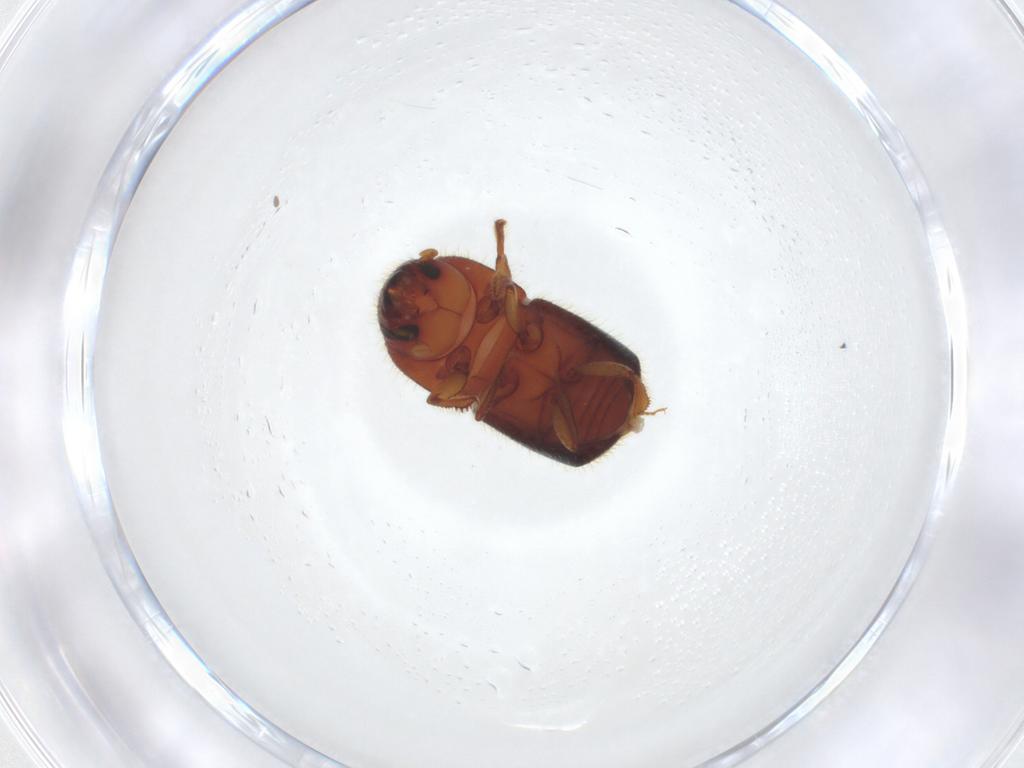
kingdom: Animalia
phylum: Arthropoda
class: Insecta
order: Coleoptera
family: Curculionidae
